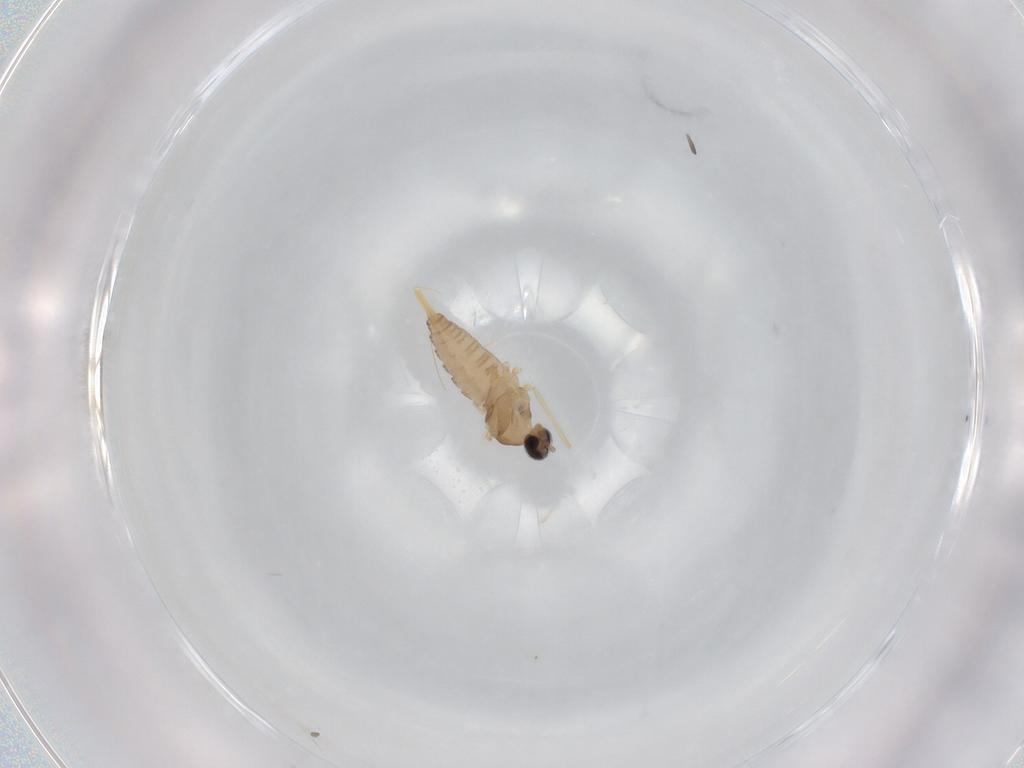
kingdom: Animalia
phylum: Arthropoda
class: Insecta
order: Diptera
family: Cecidomyiidae
